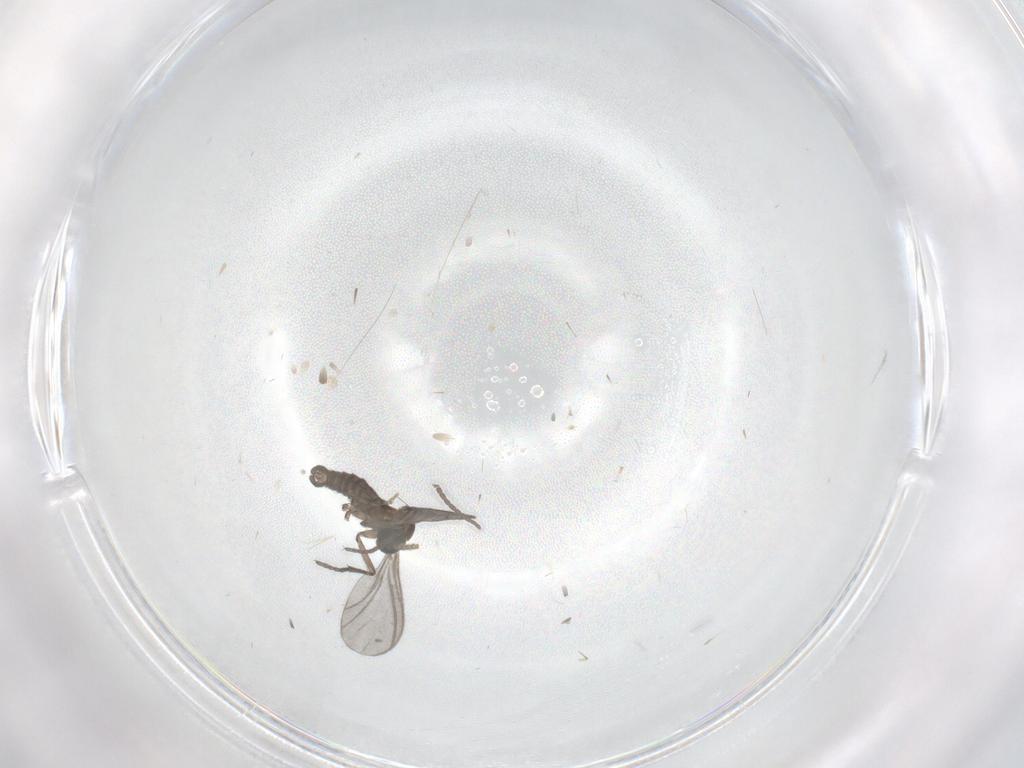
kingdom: Animalia
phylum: Arthropoda
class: Insecta
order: Diptera
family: Sciaridae
